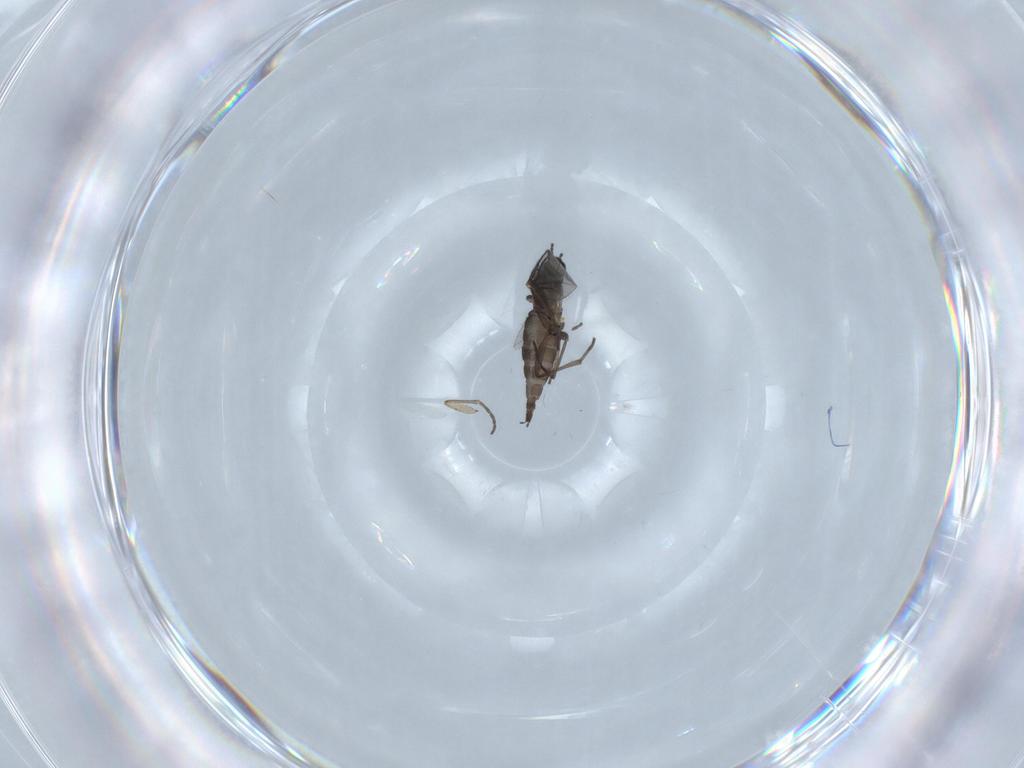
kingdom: Animalia
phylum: Arthropoda
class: Insecta
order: Diptera
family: Sciaridae
